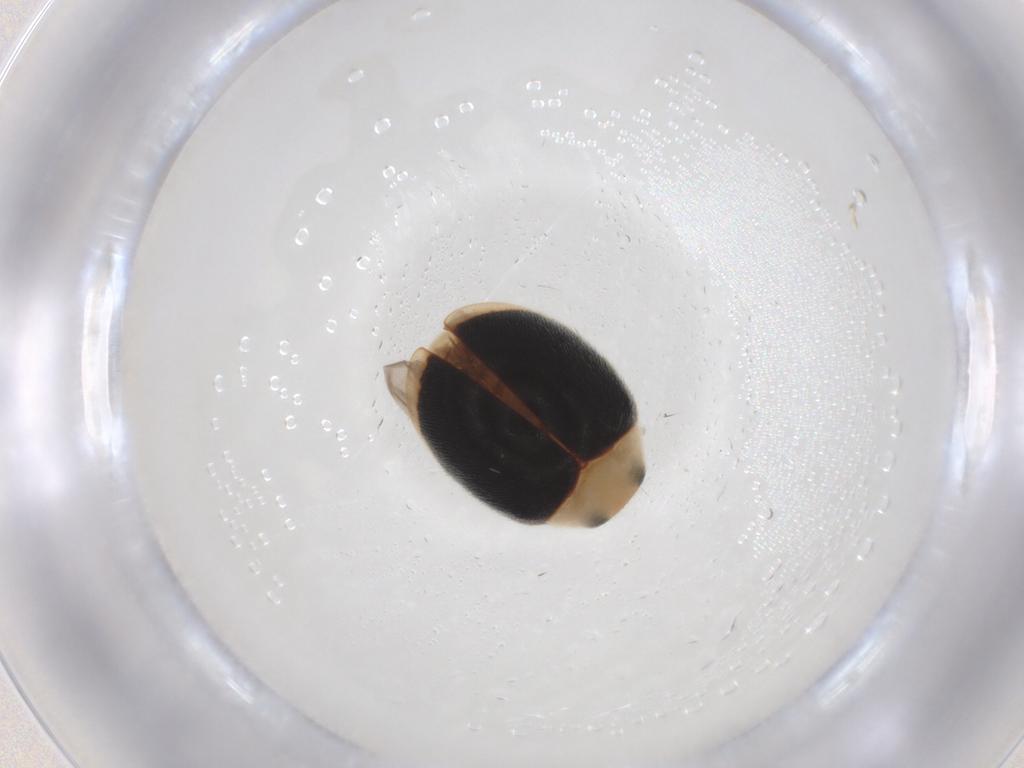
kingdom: Animalia
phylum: Arthropoda
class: Insecta
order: Coleoptera
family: Coccinellidae
